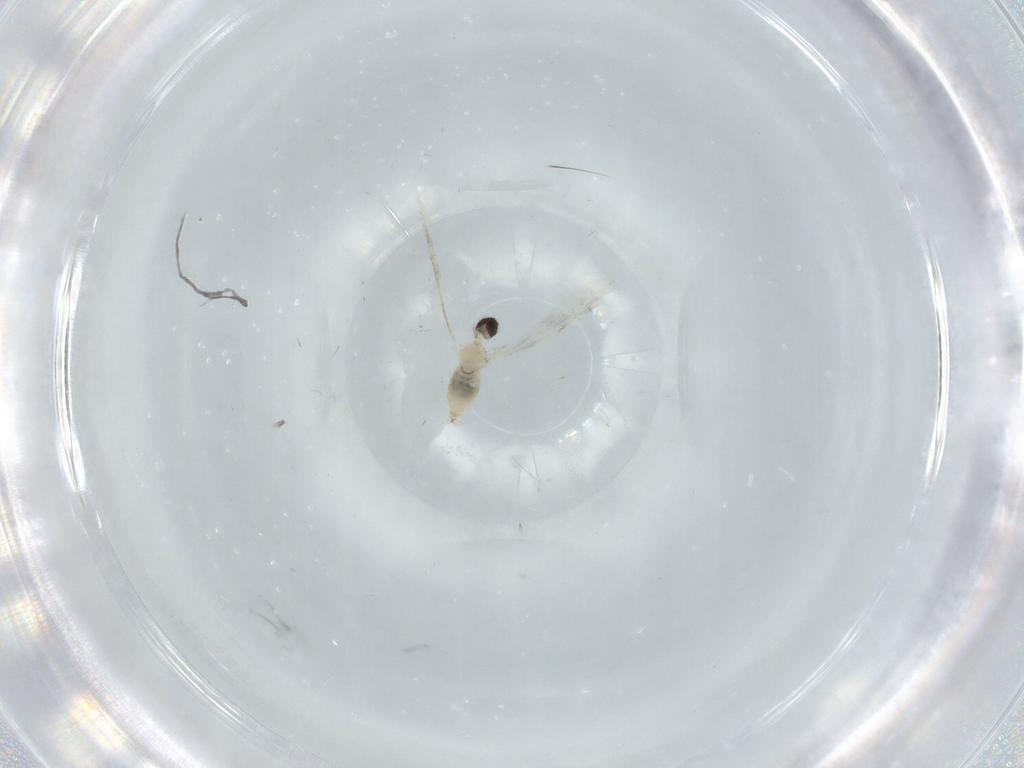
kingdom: Animalia
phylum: Arthropoda
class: Insecta
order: Diptera
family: Cecidomyiidae
